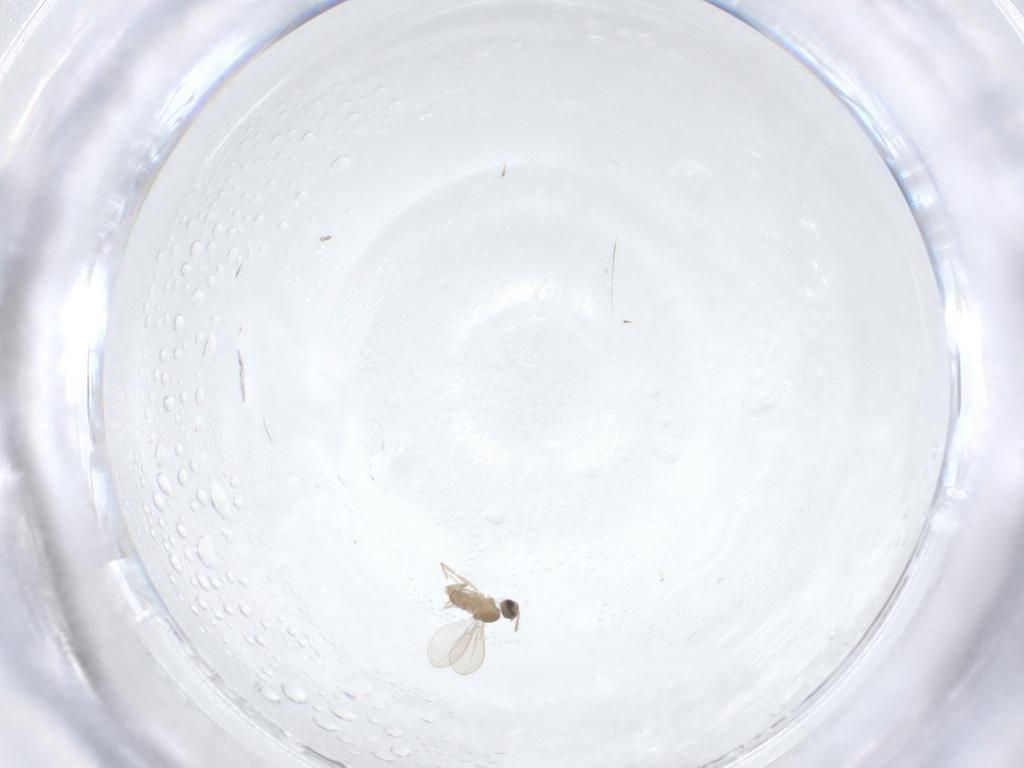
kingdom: Animalia
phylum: Arthropoda
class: Insecta
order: Diptera
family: Cecidomyiidae
